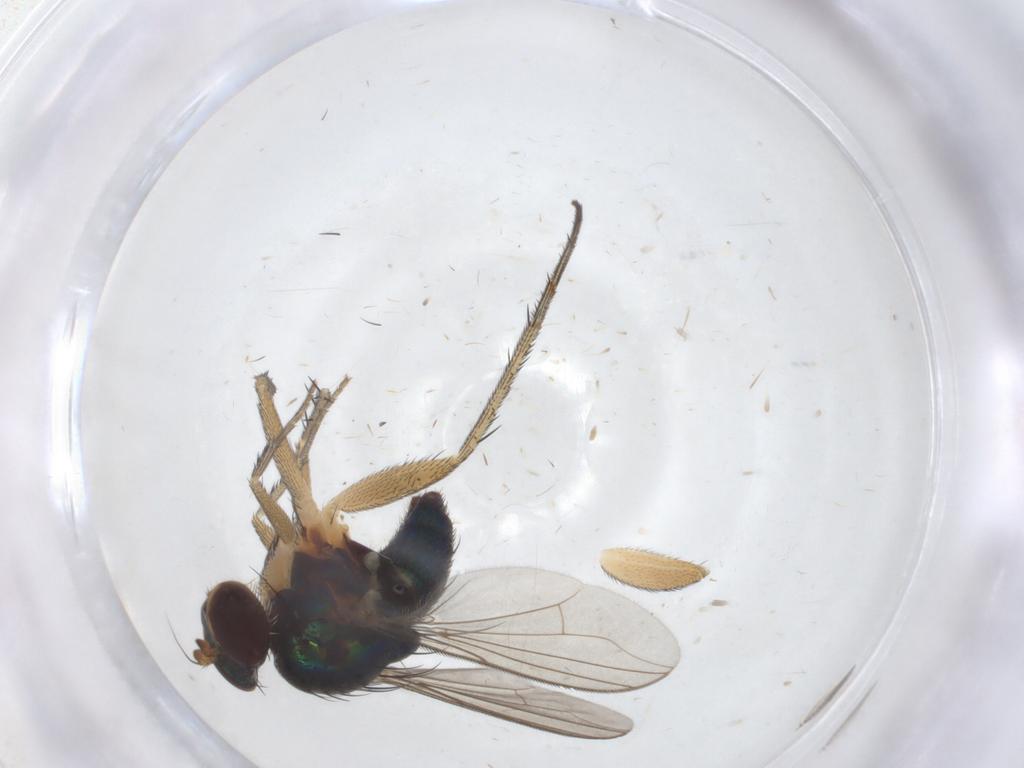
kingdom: Animalia
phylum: Arthropoda
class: Insecta
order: Diptera
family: Dolichopodidae
